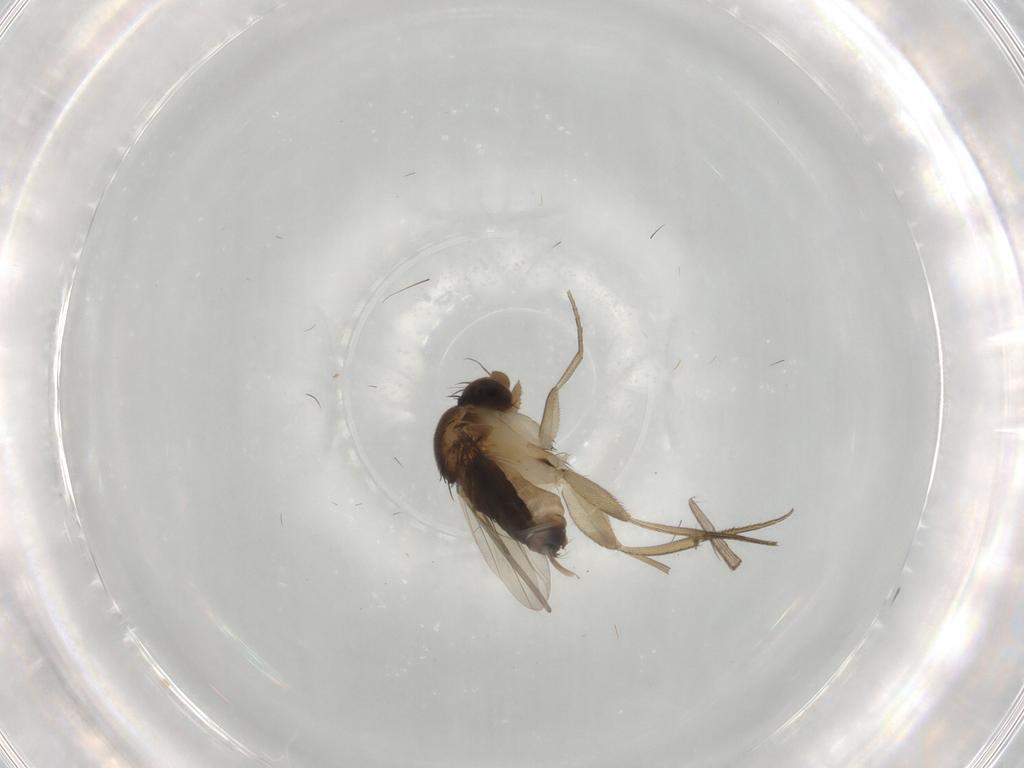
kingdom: Animalia
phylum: Arthropoda
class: Insecta
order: Diptera
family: Phoridae
